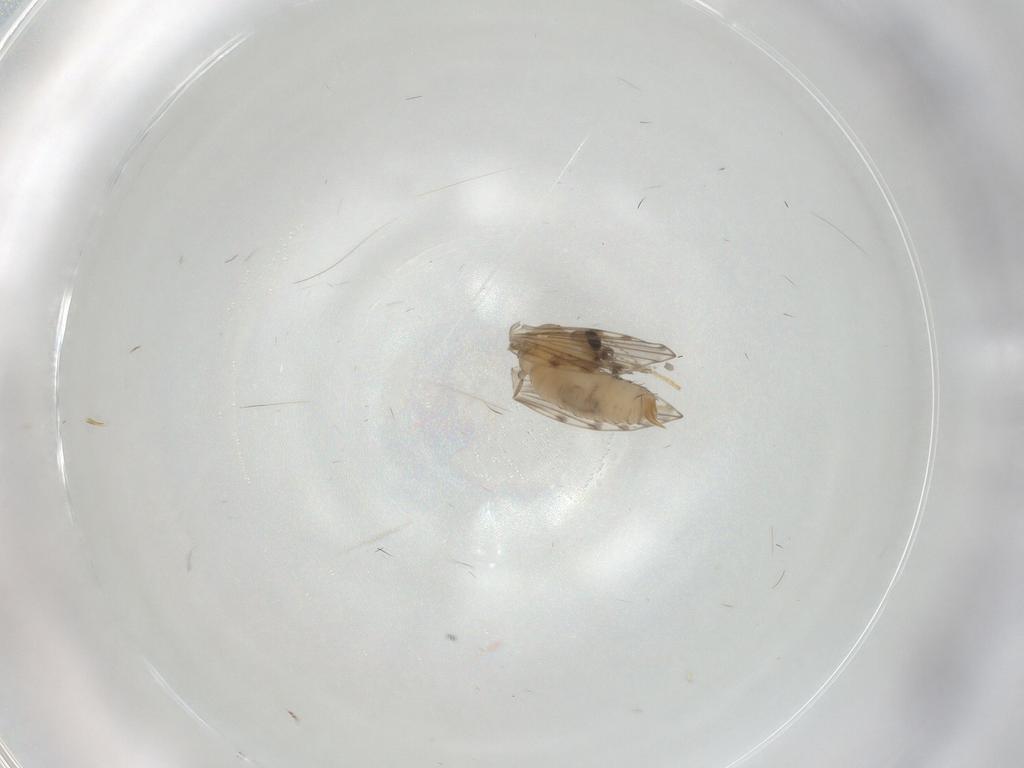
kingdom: Animalia
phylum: Arthropoda
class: Insecta
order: Diptera
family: Psychodidae
